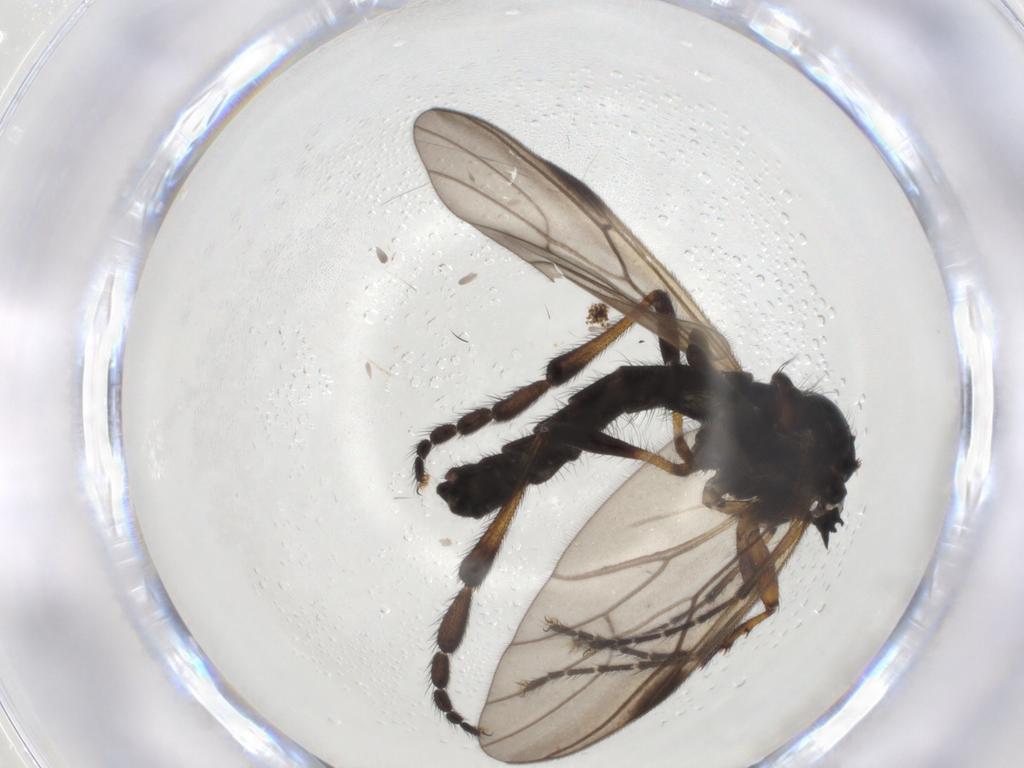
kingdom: Animalia
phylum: Arthropoda
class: Insecta
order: Diptera
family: Bibionidae
